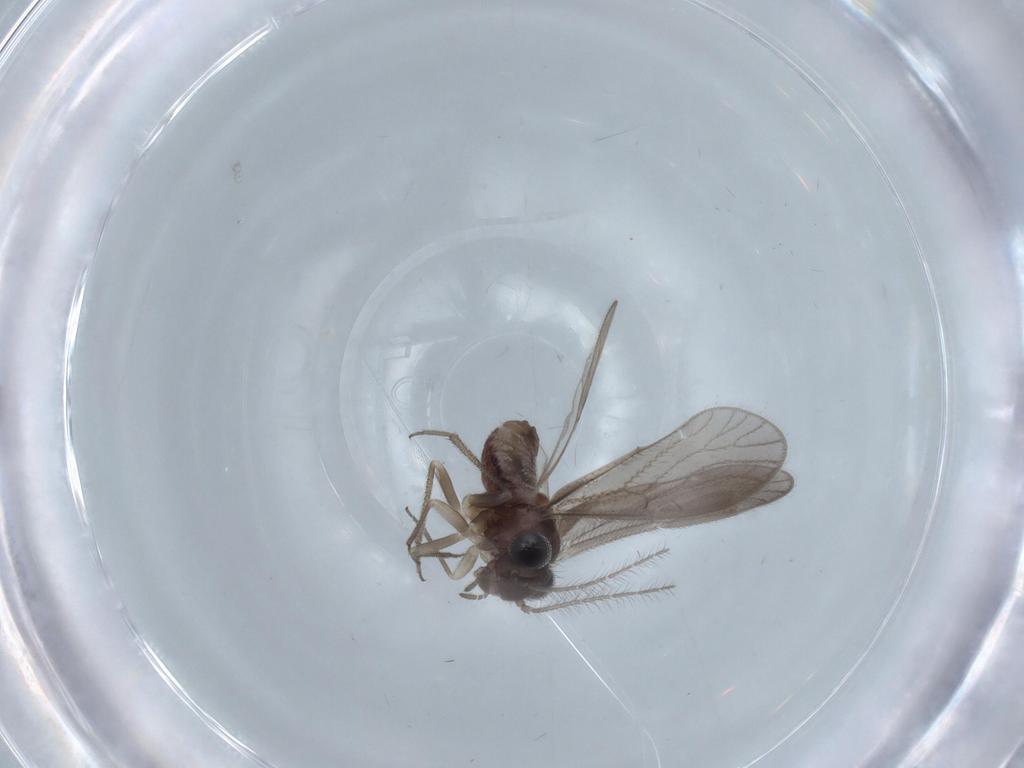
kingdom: Animalia
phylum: Arthropoda
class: Insecta
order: Psocodea
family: Caeciliusidae
